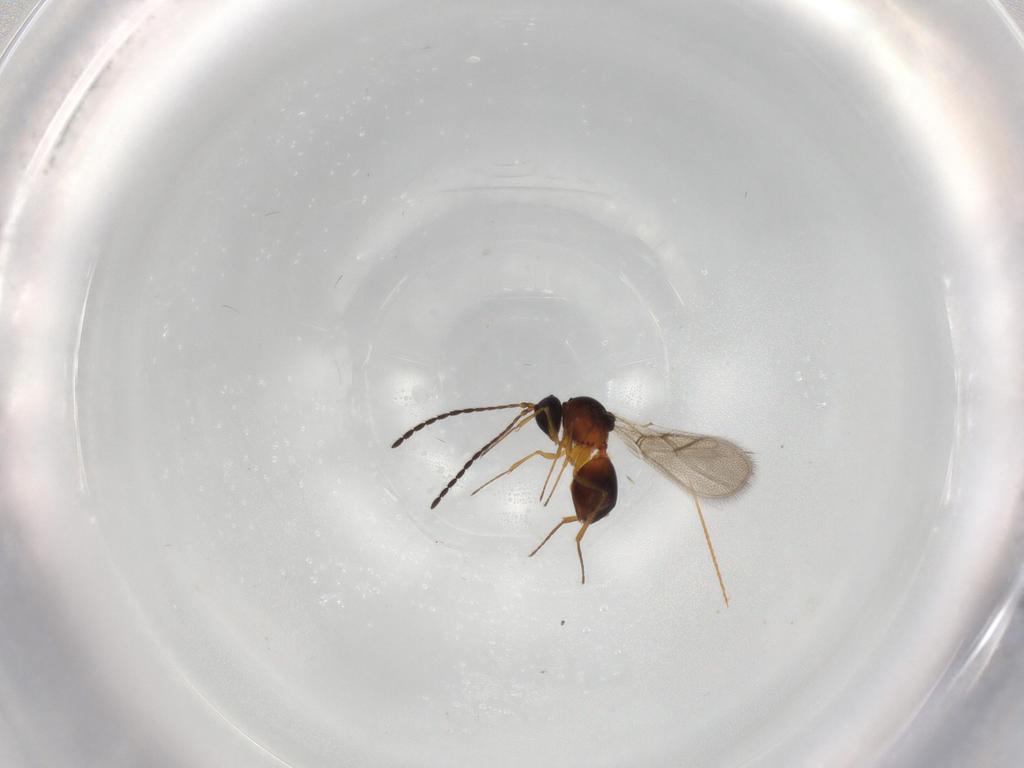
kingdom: Animalia
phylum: Arthropoda
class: Insecta
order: Hymenoptera
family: Figitidae
